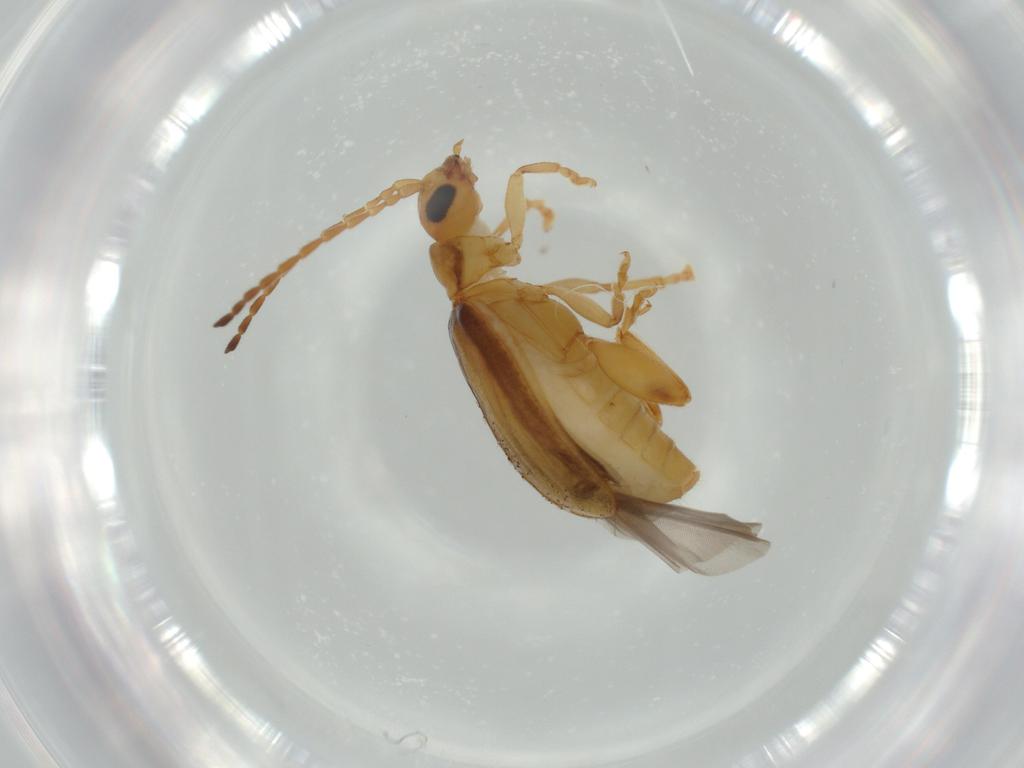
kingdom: Animalia
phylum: Arthropoda
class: Insecta
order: Coleoptera
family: Chrysomelidae
